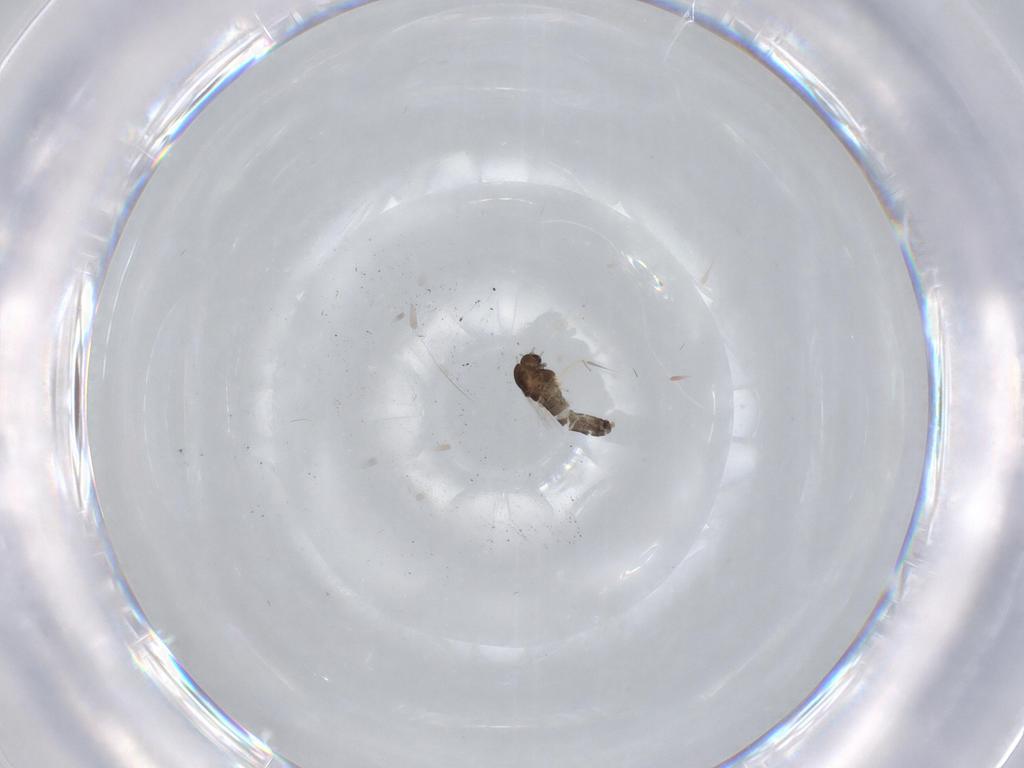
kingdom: Animalia
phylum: Arthropoda
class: Insecta
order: Diptera
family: Chironomidae
